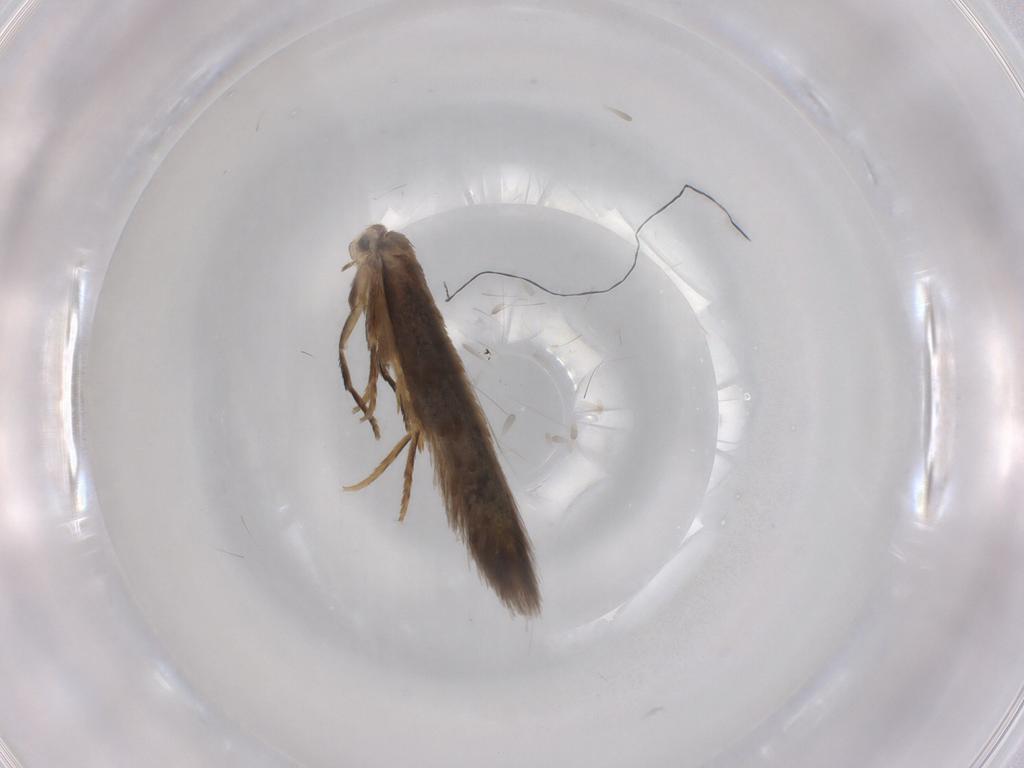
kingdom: Animalia
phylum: Arthropoda
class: Insecta
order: Lepidoptera
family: Nepticulidae
